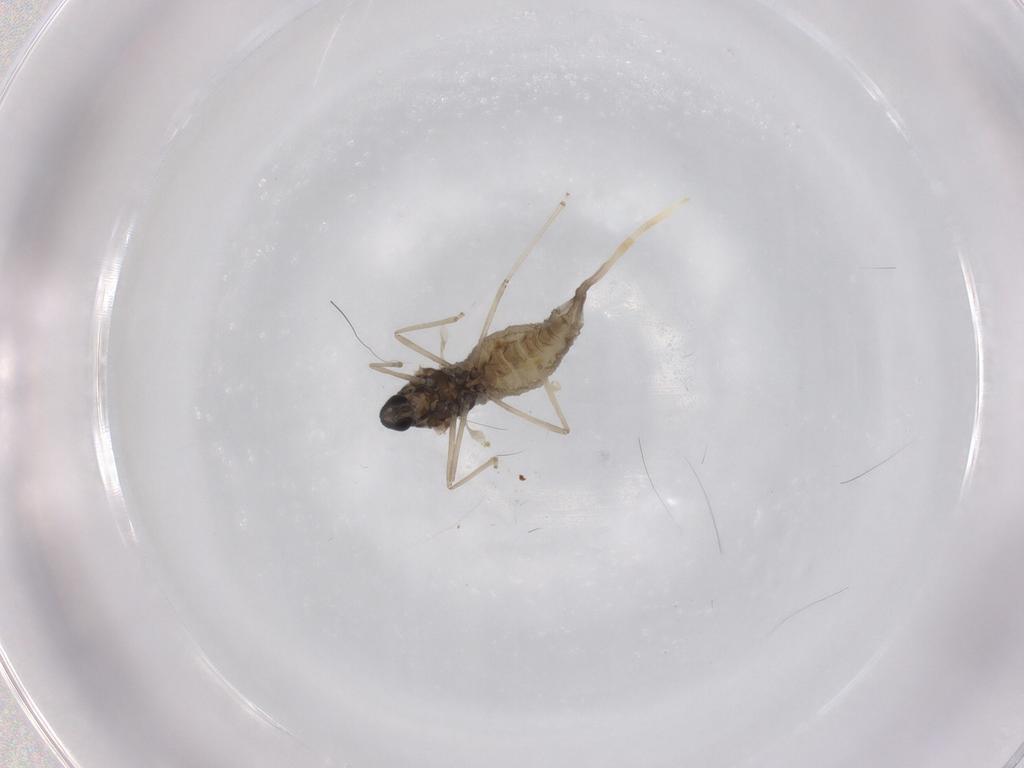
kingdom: Animalia
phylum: Arthropoda
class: Insecta
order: Diptera
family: Cecidomyiidae
